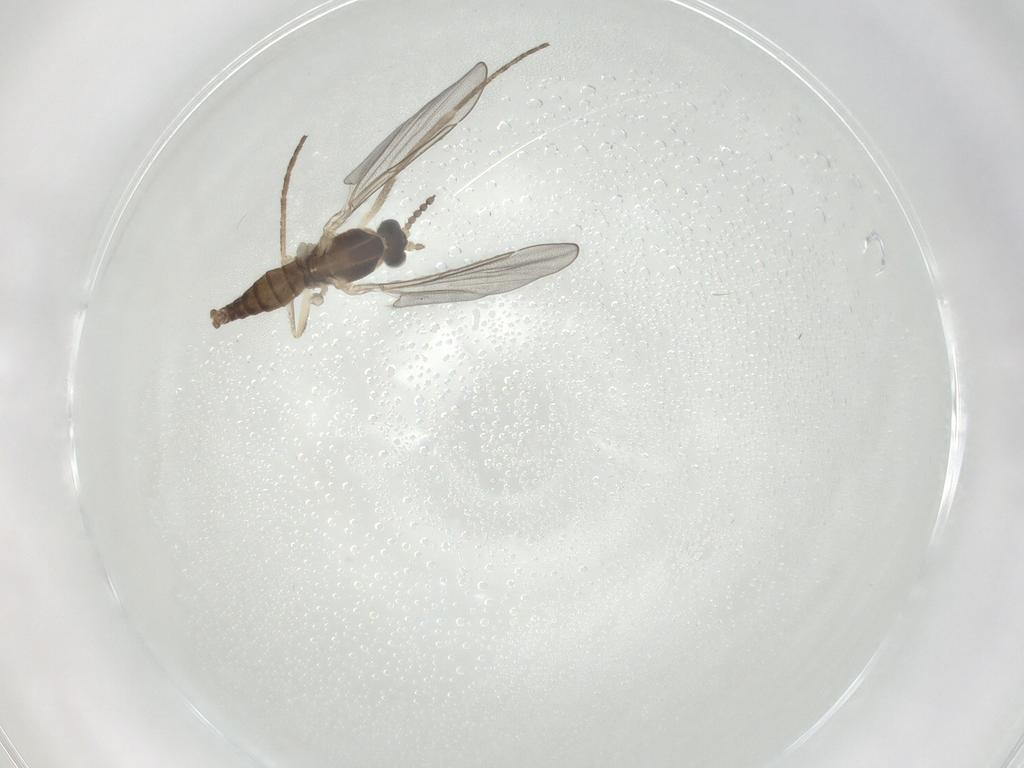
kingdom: Animalia
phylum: Arthropoda
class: Insecta
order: Diptera
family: Cecidomyiidae
